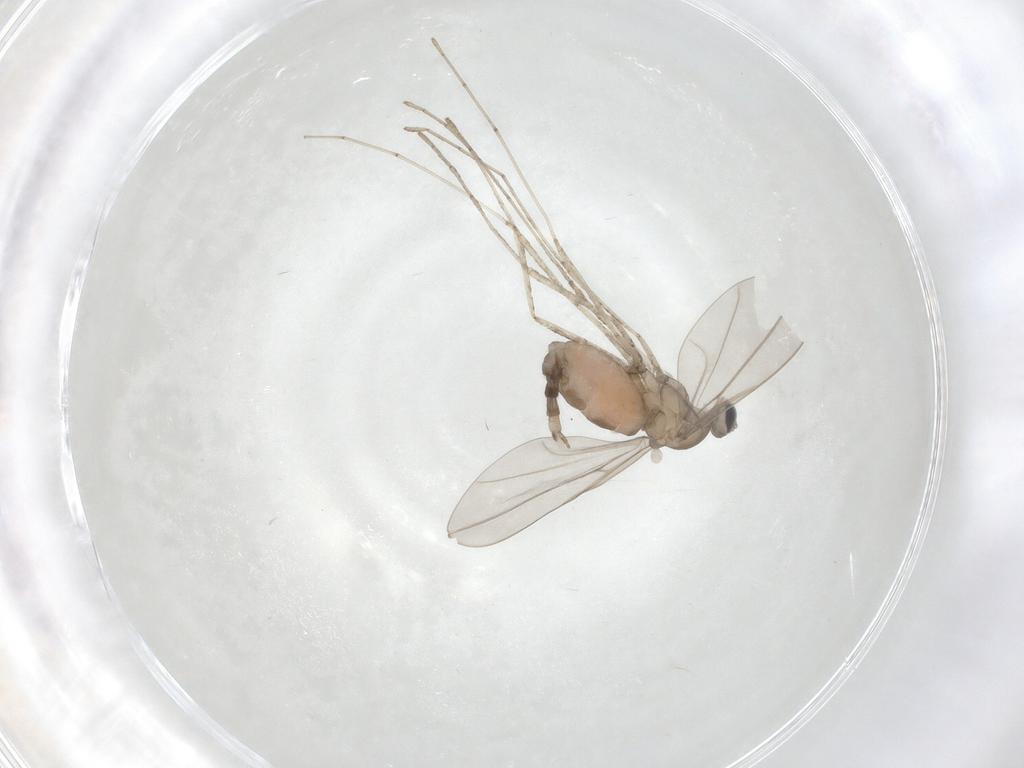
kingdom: Animalia
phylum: Arthropoda
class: Insecta
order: Diptera
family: Cecidomyiidae
